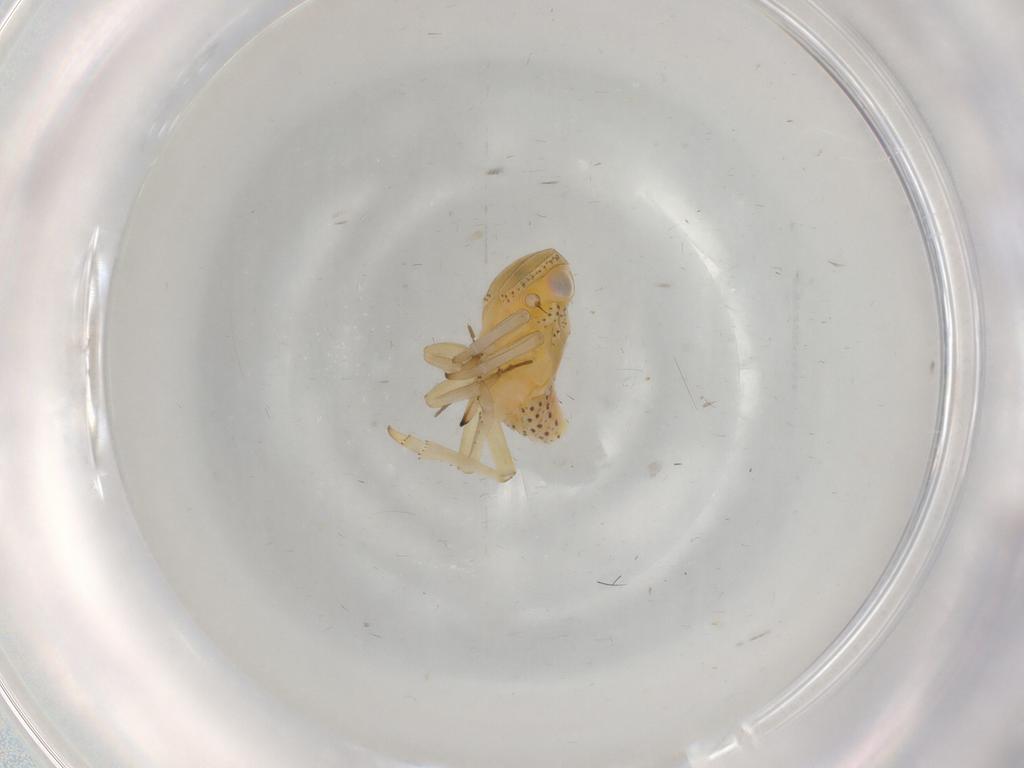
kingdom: Animalia
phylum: Arthropoda
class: Insecta
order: Hemiptera
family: Tropiduchidae
